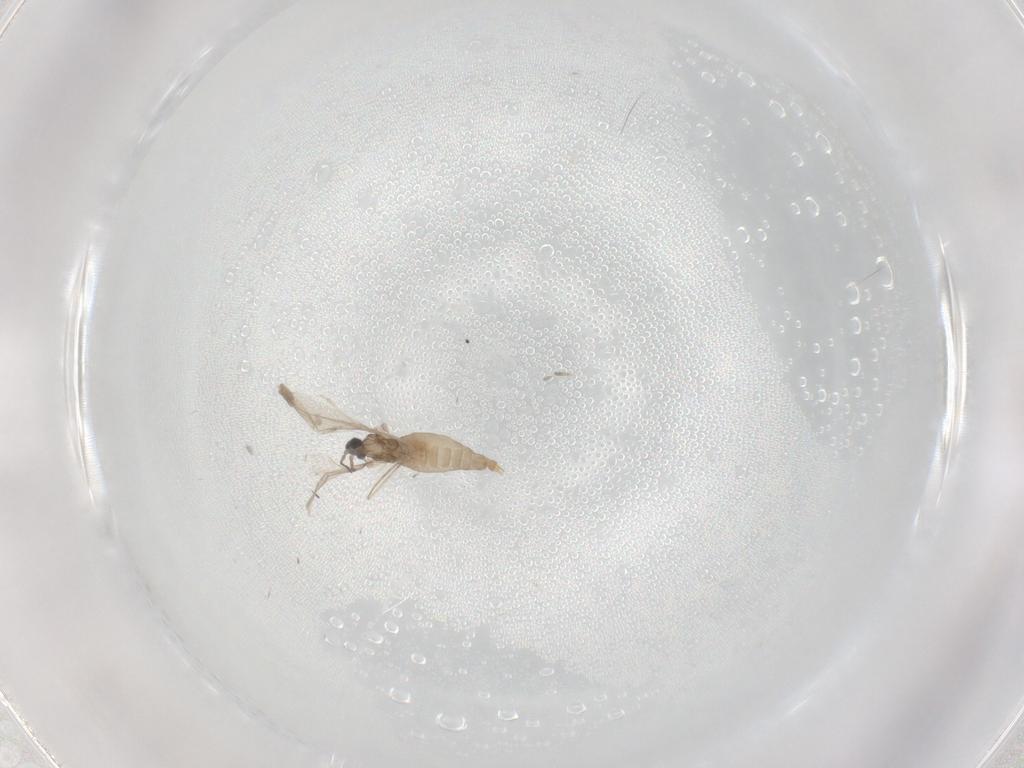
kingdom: Animalia
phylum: Arthropoda
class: Insecta
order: Diptera
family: Cecidomyiidae
